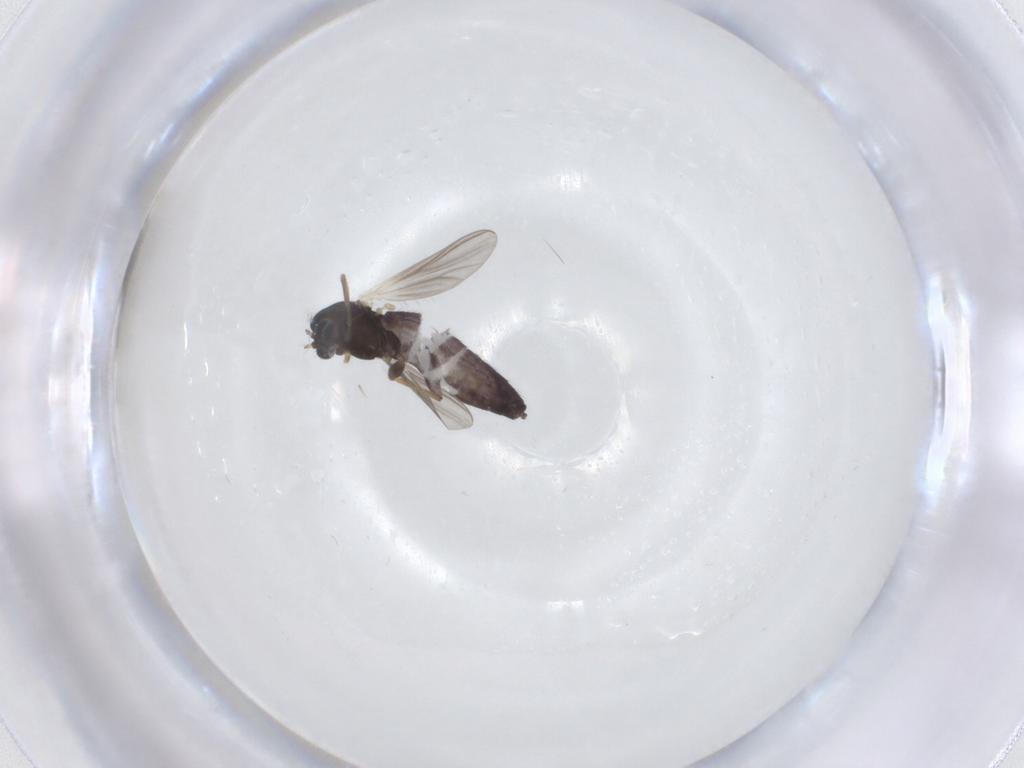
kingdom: Animalia
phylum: Arthropoda
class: Insecta
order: Diptera
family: Chironomidae
